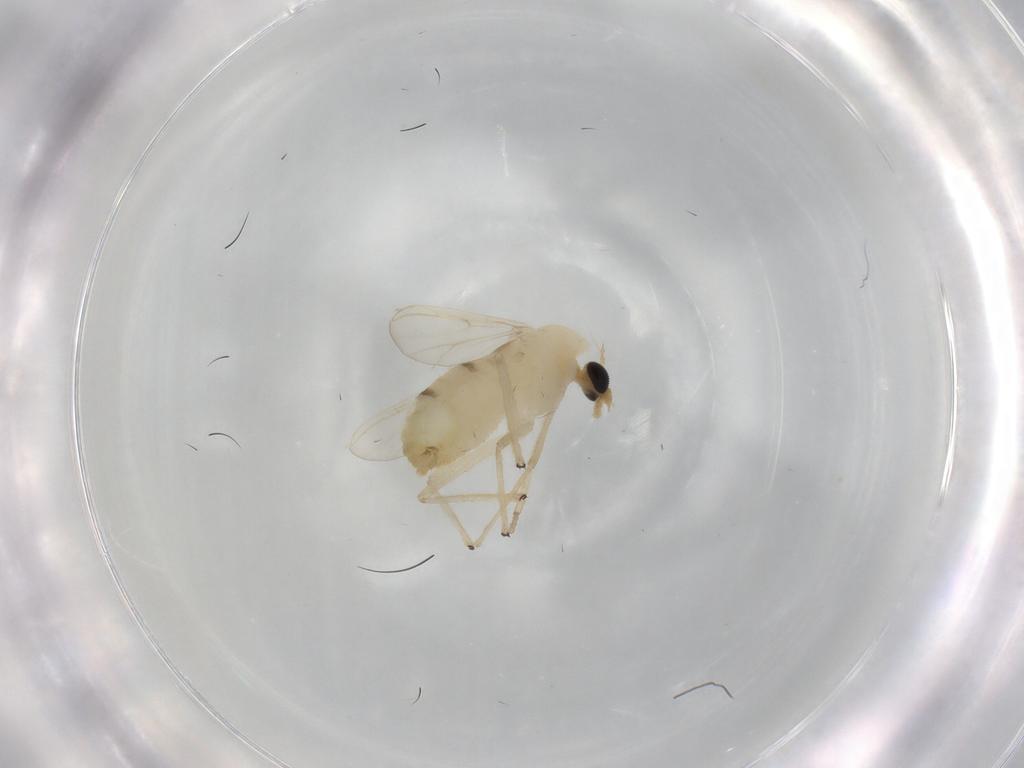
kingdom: Animalia
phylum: Arthropoda
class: Insecta
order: Diptera
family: Chironomidae
